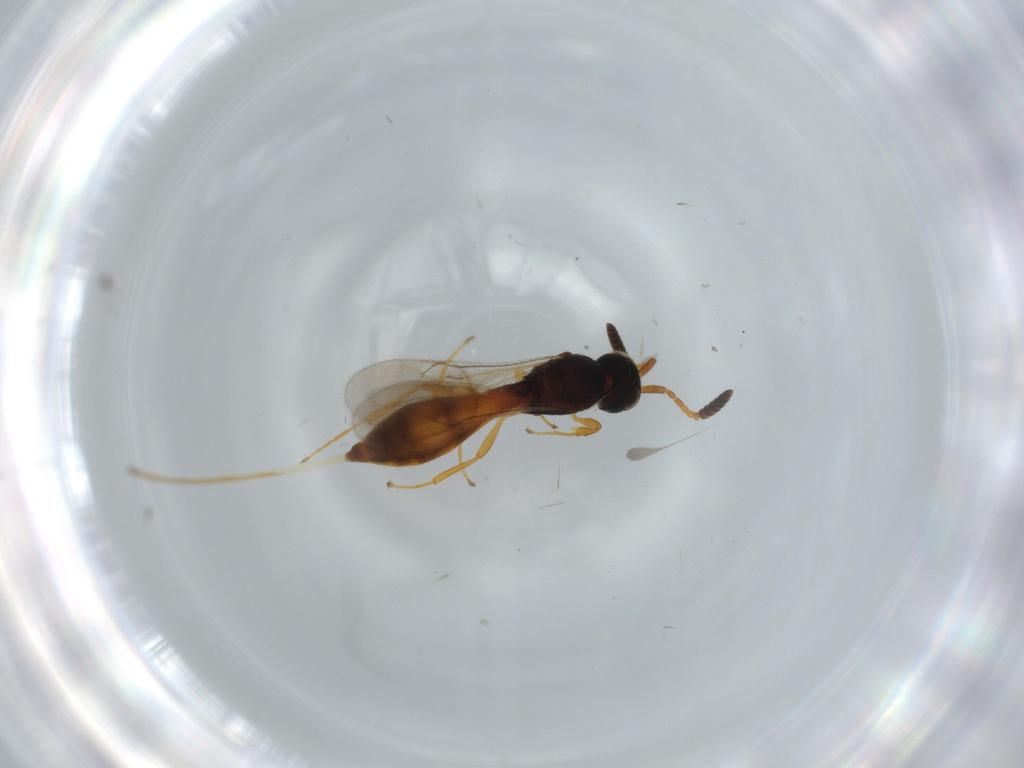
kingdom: Animalia
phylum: Arthropoda
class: Insecta
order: Hymenoptera
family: Scelionidae
